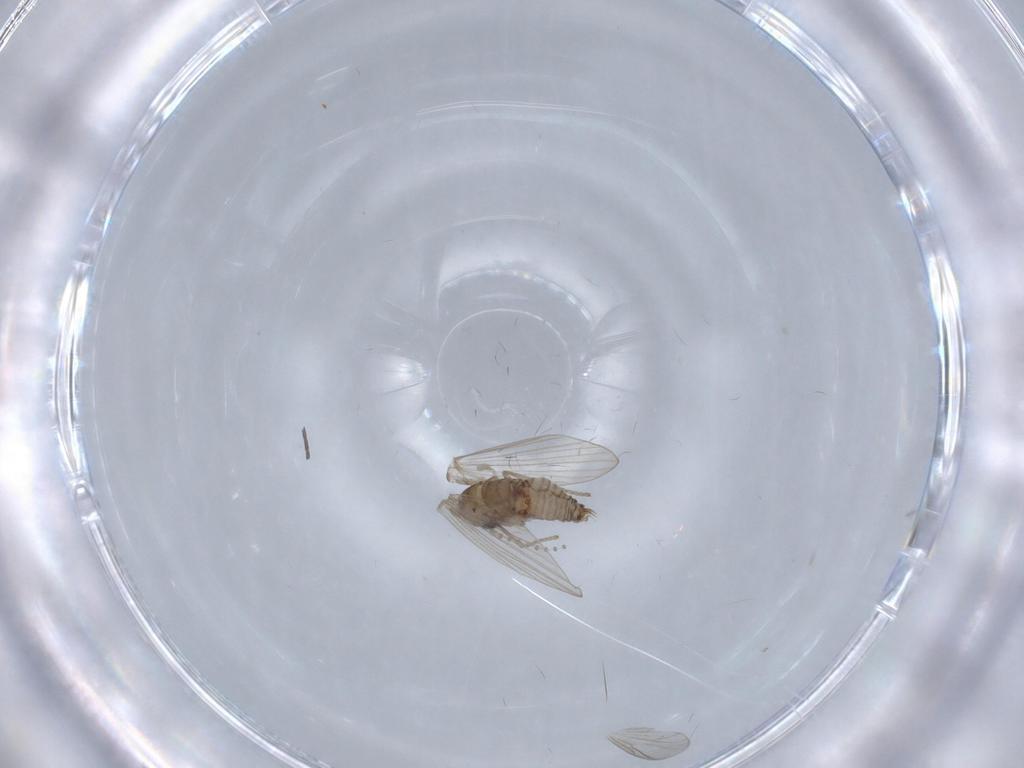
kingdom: Animalia
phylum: Arthropoda
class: Insecta
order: Diptera
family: Psychodidae
